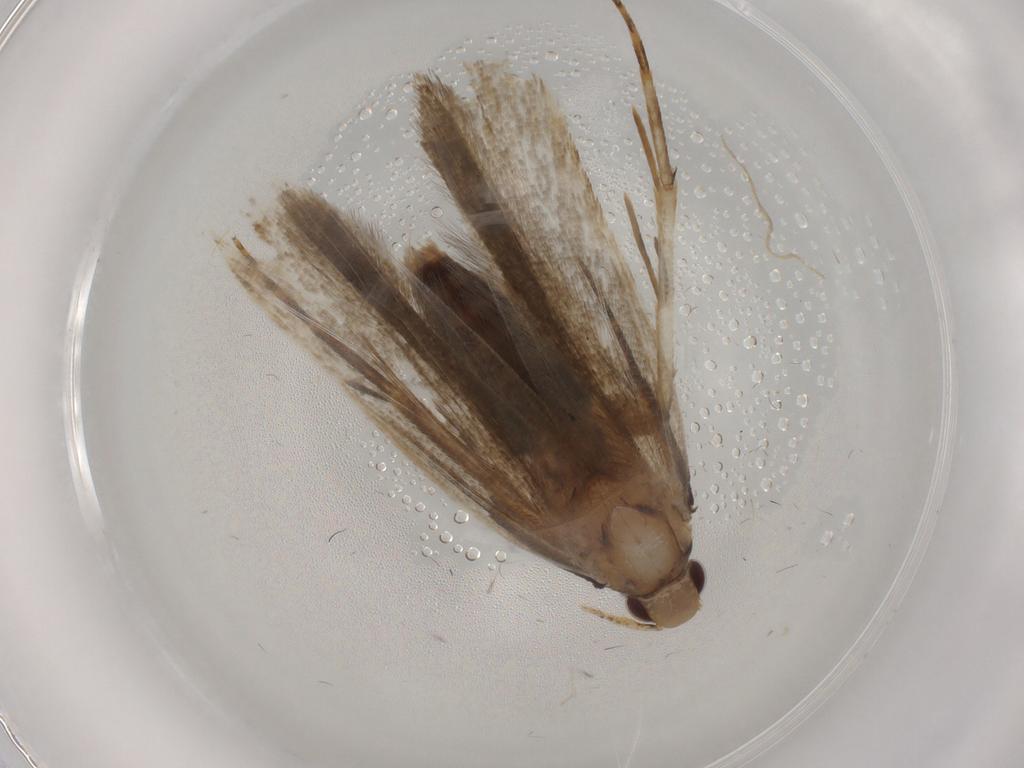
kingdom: Animalia
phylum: Arthropoda
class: Insecta
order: Lepidoptera
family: Gelechiidae
